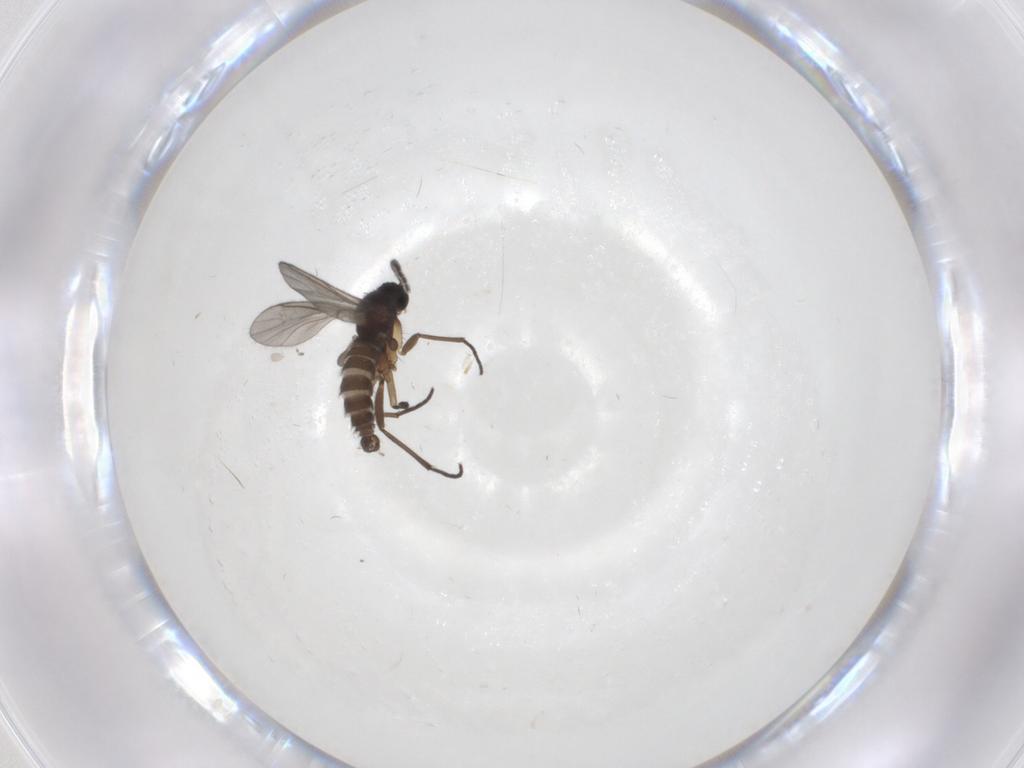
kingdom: Animalia
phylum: Arthropoda
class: Insecta
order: Diptera
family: Sciaridae
